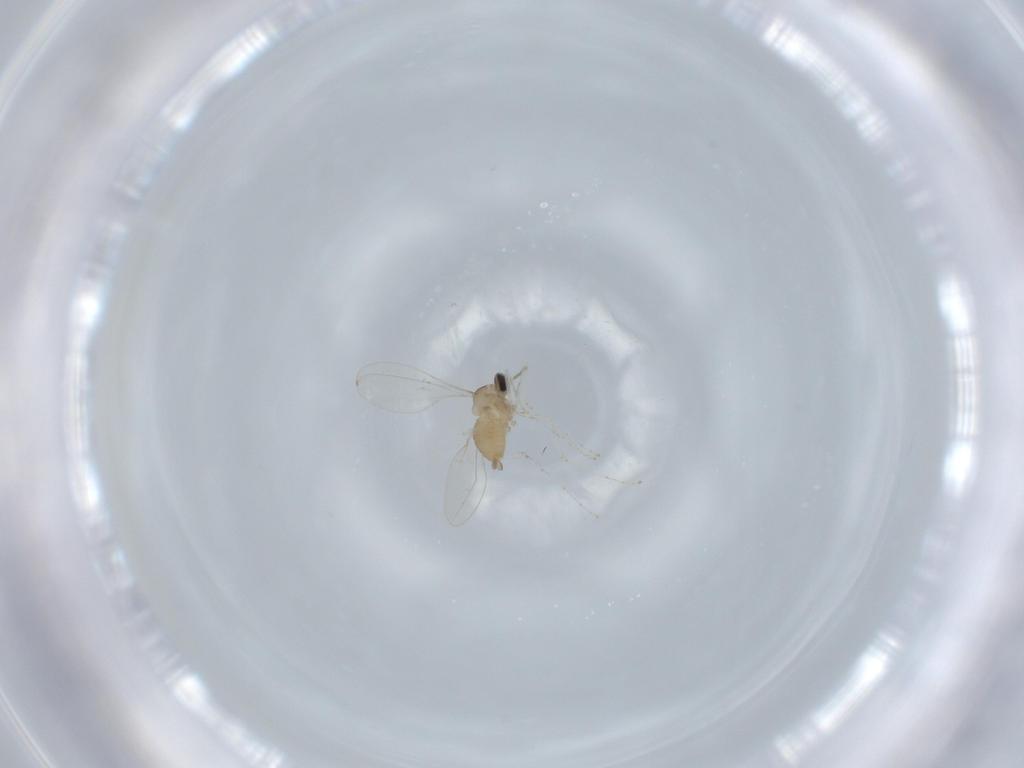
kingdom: Animalia
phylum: Arthropoda
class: Insecta
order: Diptera
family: Cecidomyiidae
